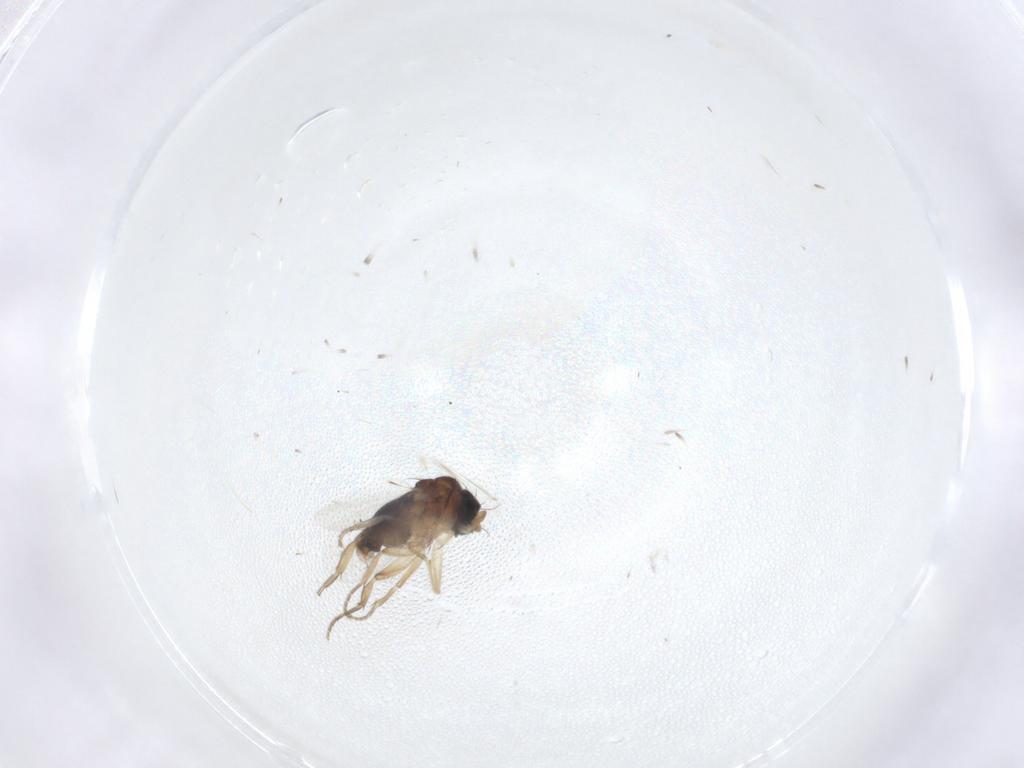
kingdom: Animalia
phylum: Arthropoda
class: Insecta
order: Diptera
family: Phoridae
